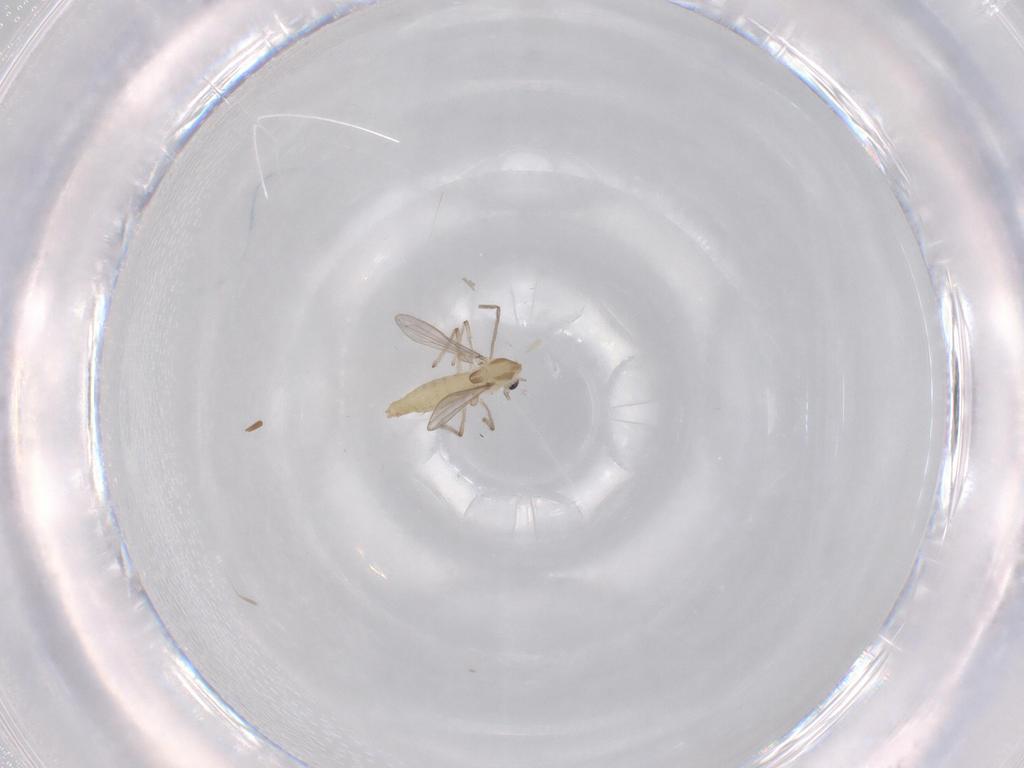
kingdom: Animalia
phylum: Arthropoda
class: Insecta
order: Diptera
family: Chironomidae
